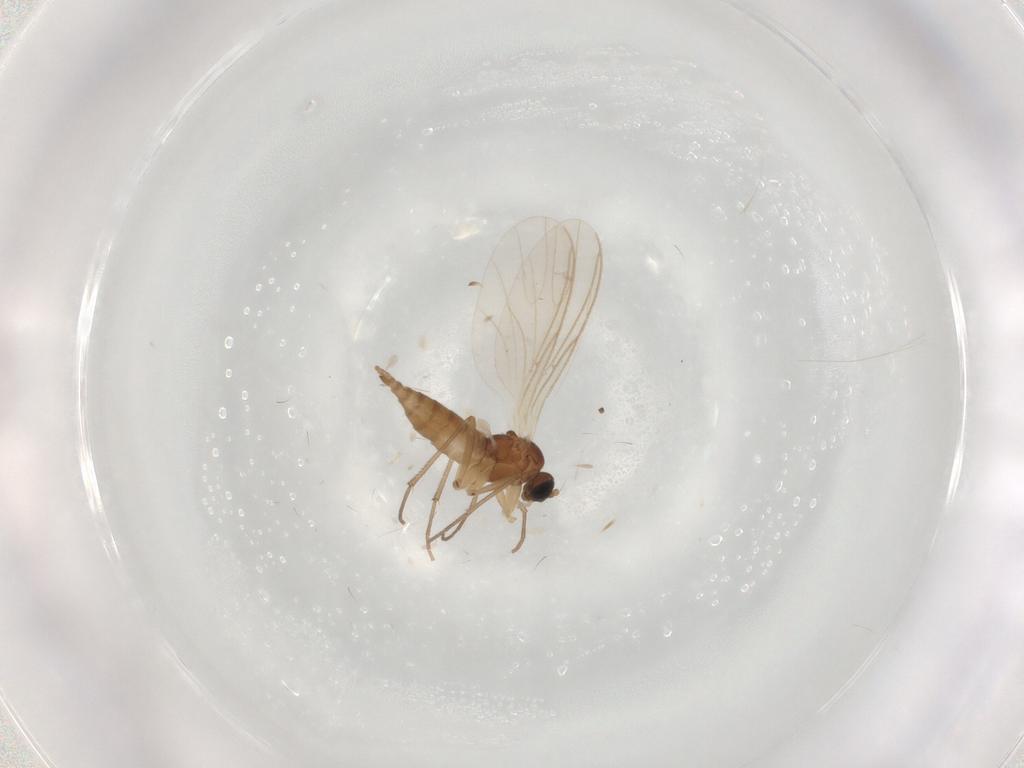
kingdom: Animalia
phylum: Arthropoda
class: Insecta
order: Diptera
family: Sciaridae
